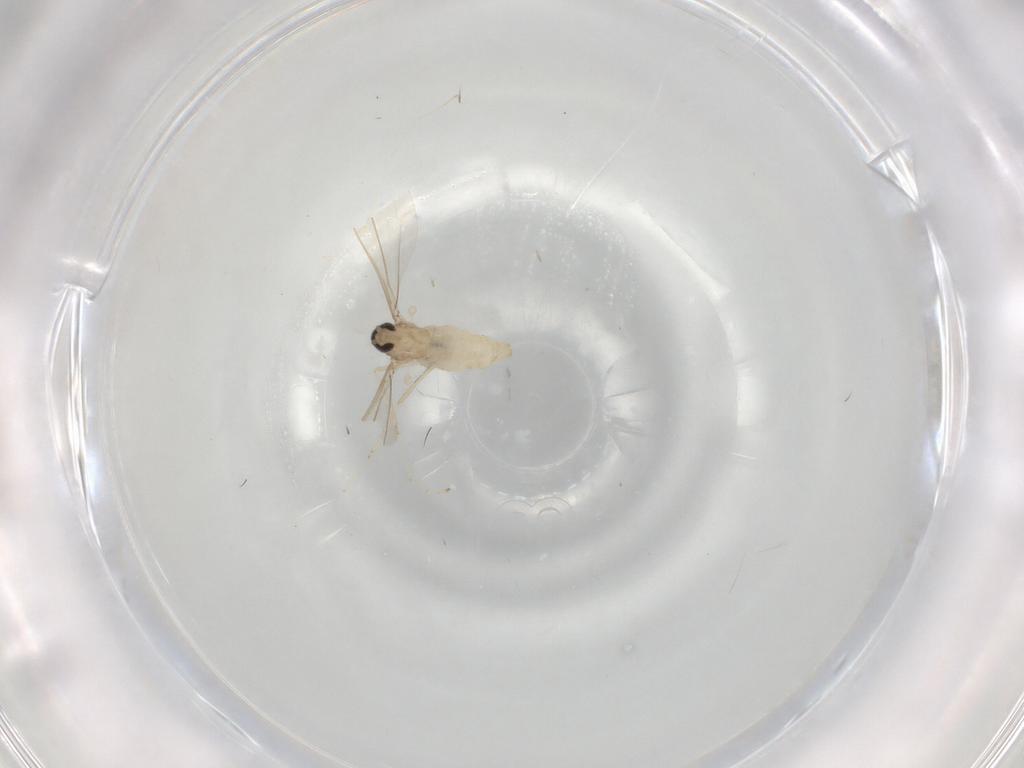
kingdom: Animalia
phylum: Arthropoda
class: Insecta
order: Diptera
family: Cecidomyiidae
